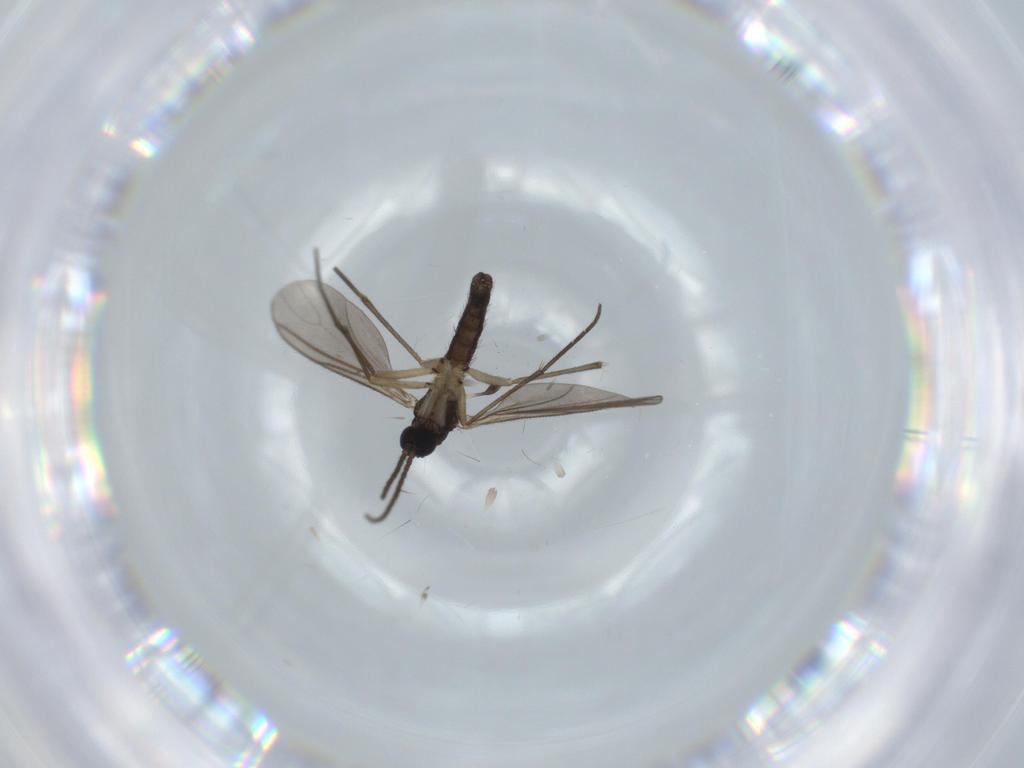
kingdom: Animalia
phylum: Arthropoda
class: Insecta
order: Diptera
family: Sciaridae
